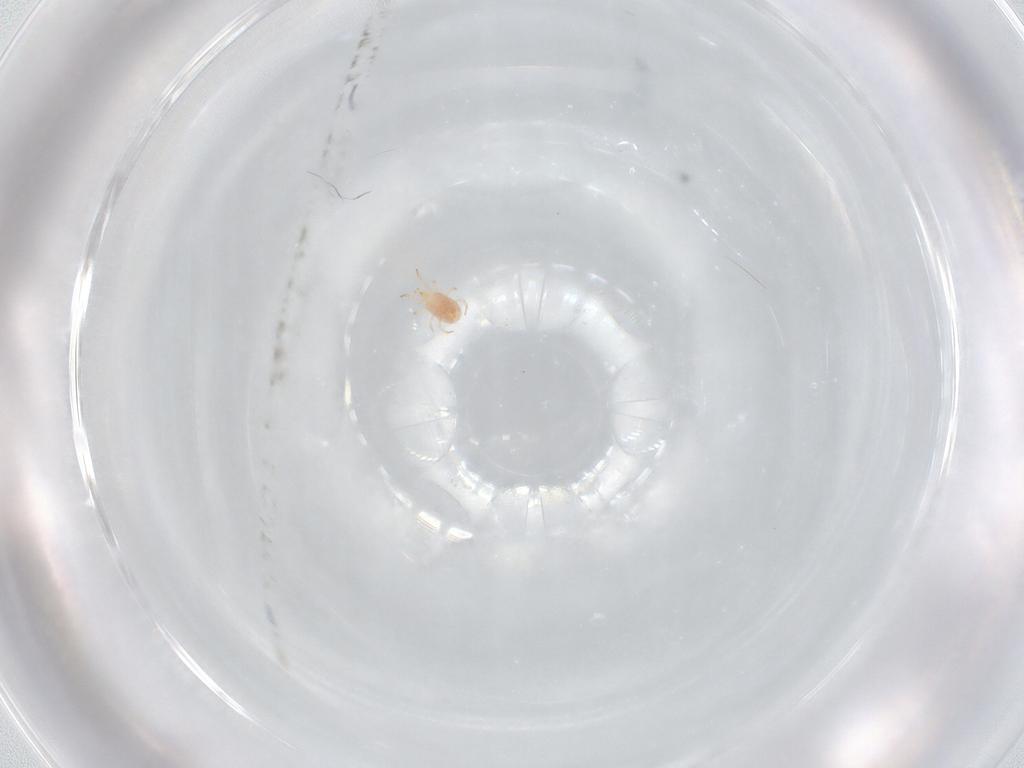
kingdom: Animalia
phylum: Arthropoda
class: Arachnida
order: Mesostigmata
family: Phytoseiidae
